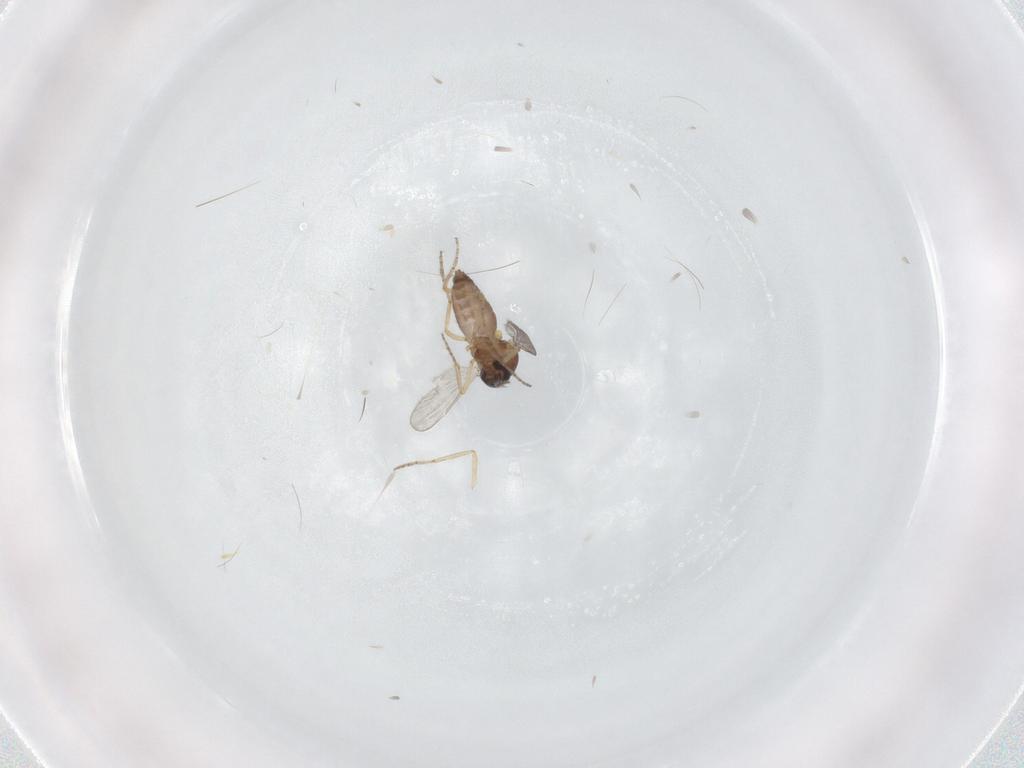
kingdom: Animalia
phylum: Arthropoda
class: Insecta
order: Diptera
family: Ceratopogonidae
